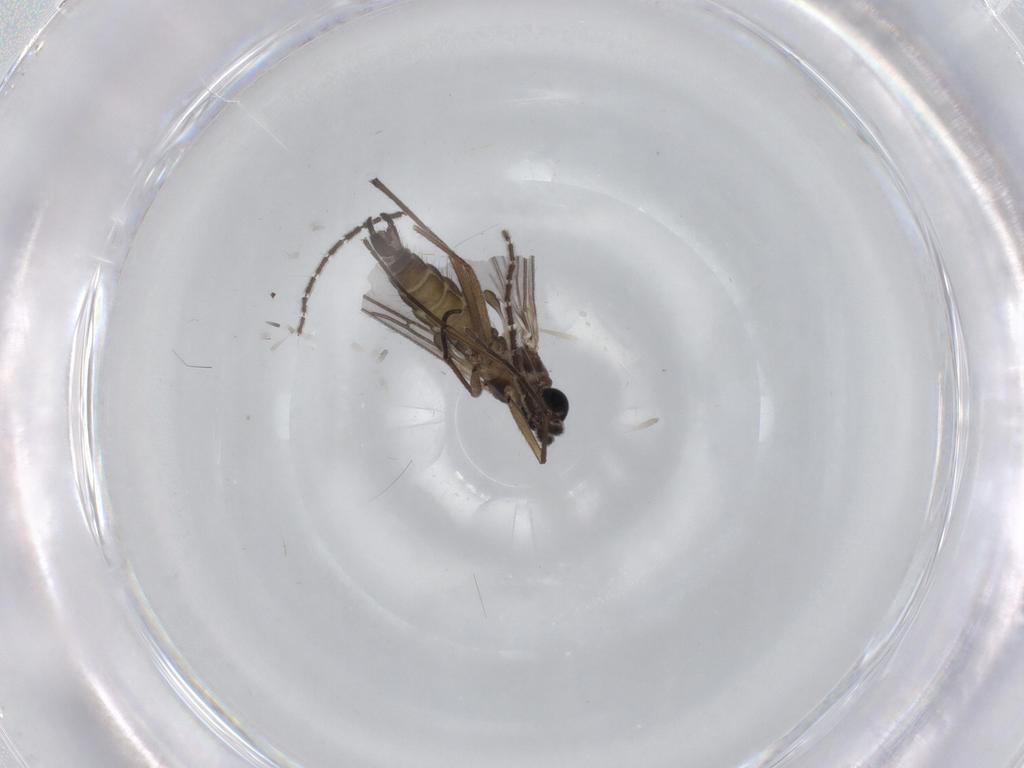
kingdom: Animalia
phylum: Arthropoda
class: Insecta
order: Diptera
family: Sciaridae
